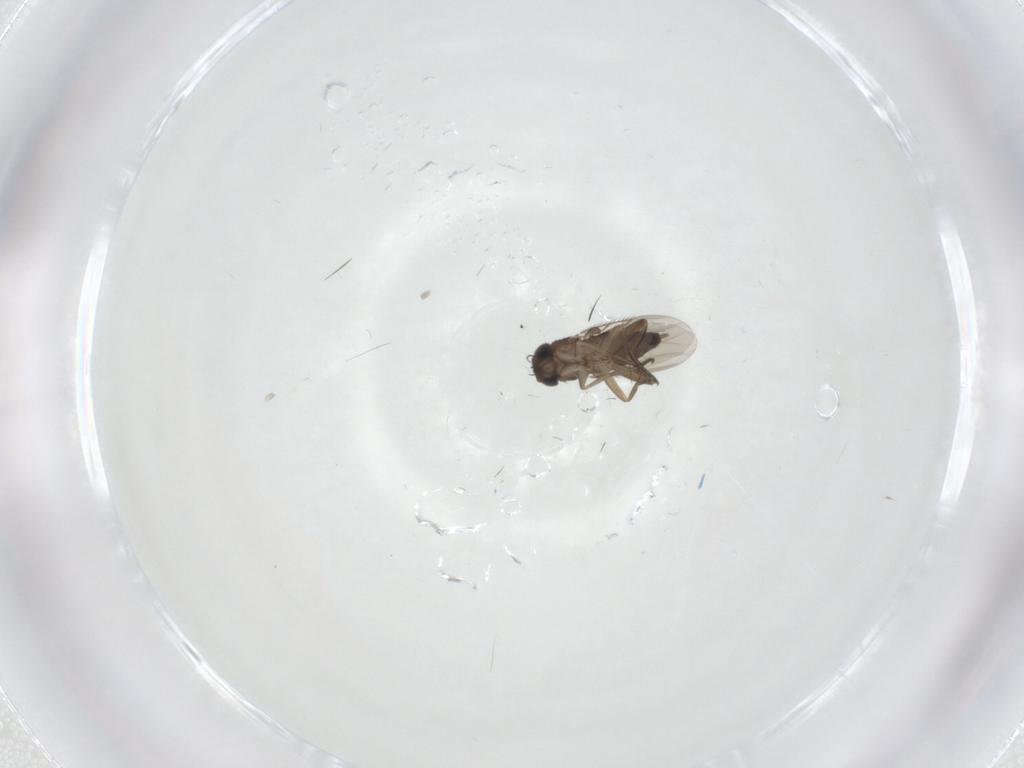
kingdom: Animalia
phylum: Arthropoda
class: Insecta
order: Diptera
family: Phoridae
